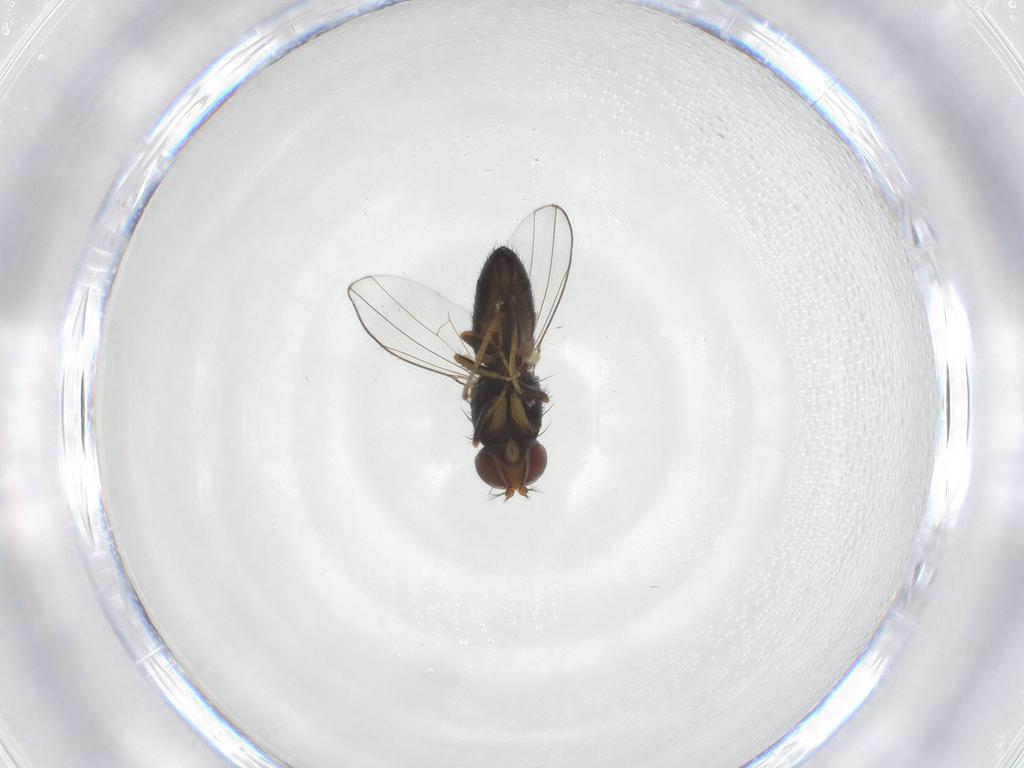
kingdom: Animalia
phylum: Arthropoda
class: Insecta
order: Diptera
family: Ephydridae
